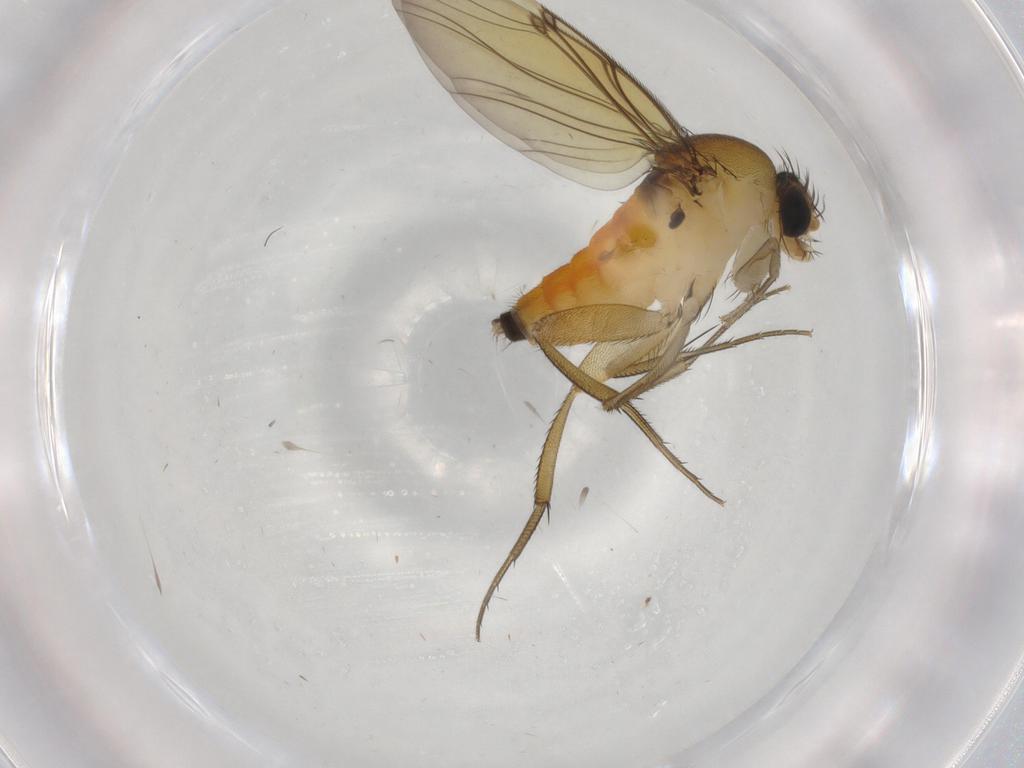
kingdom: Animalia
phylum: Arthropoda
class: Insecta
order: Diptera
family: Phoridae
